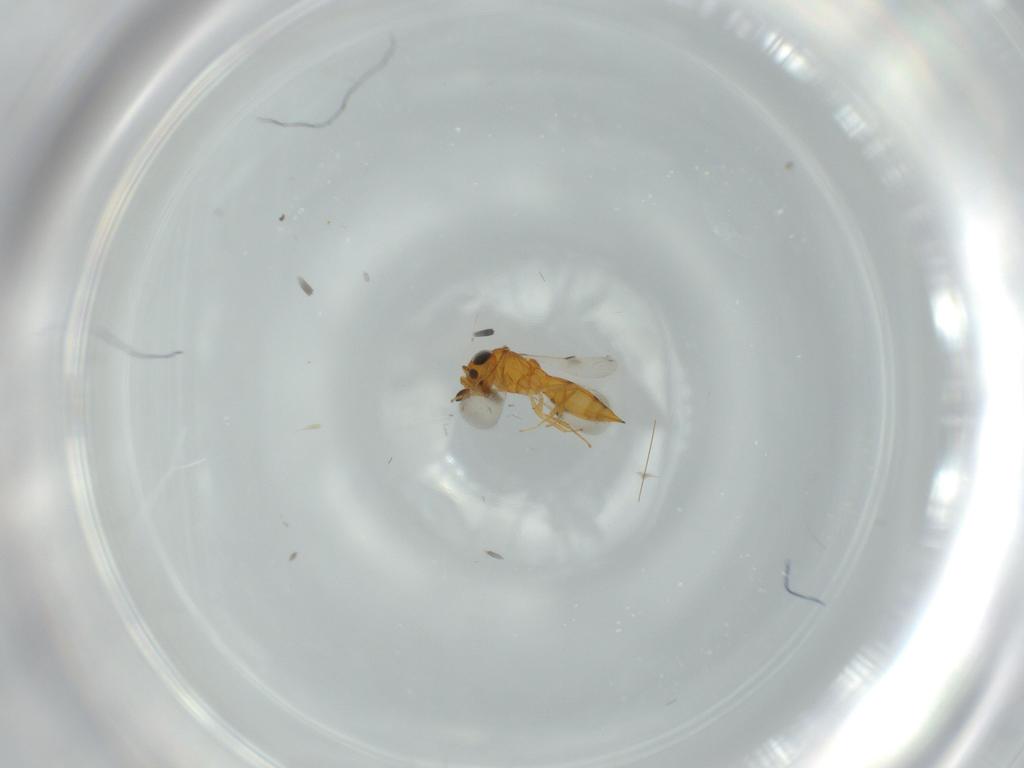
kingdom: Animalia
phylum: Arthropoda
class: Insecta
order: Hymenoptera
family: Scelionidae
